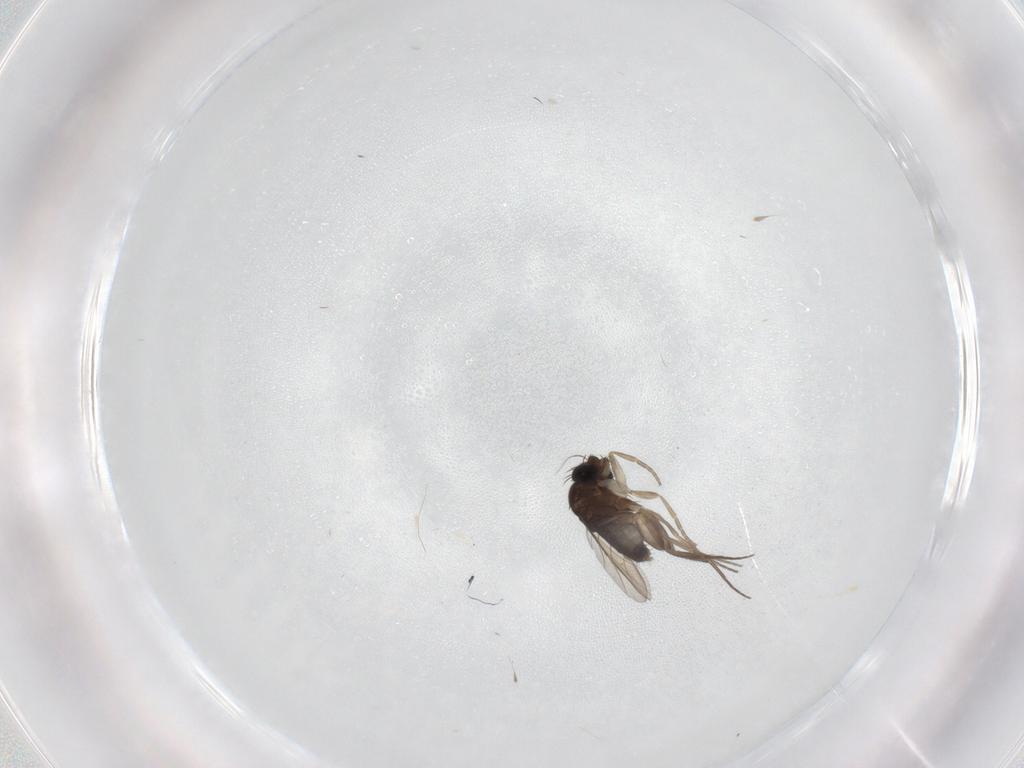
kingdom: Animalia
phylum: Arthropoda
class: Insecta
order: Diptera
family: Phoridae
